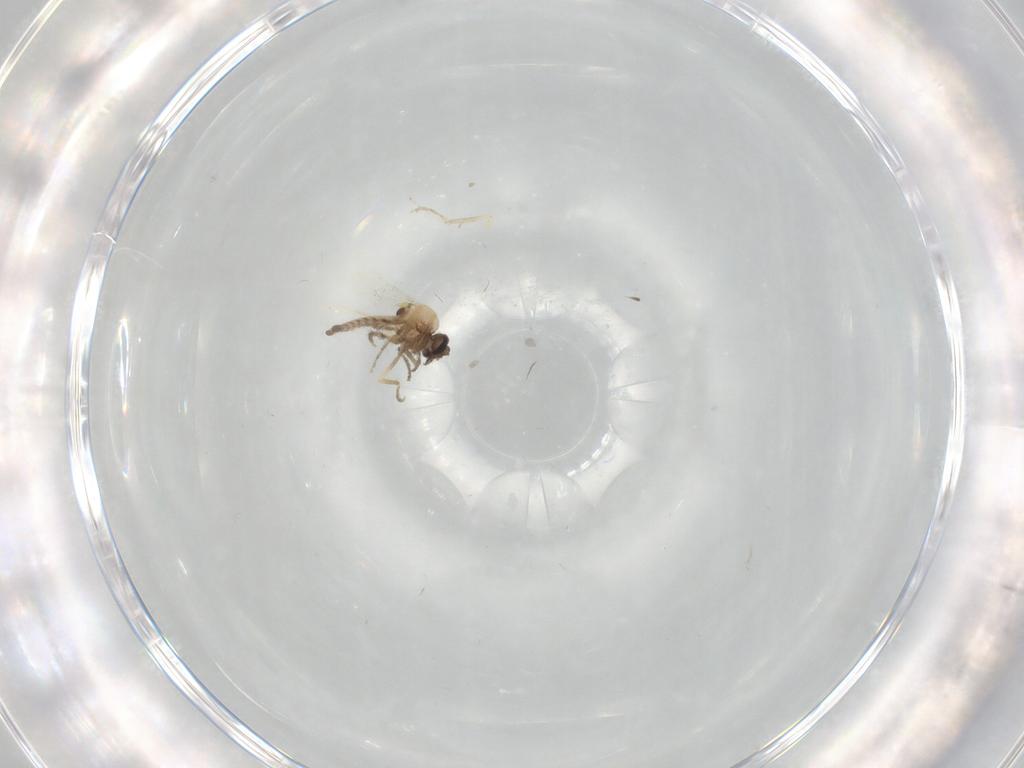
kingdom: Animalia
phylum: Arthropoda
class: Insecta
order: Diptera
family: Ceratopogonidae
